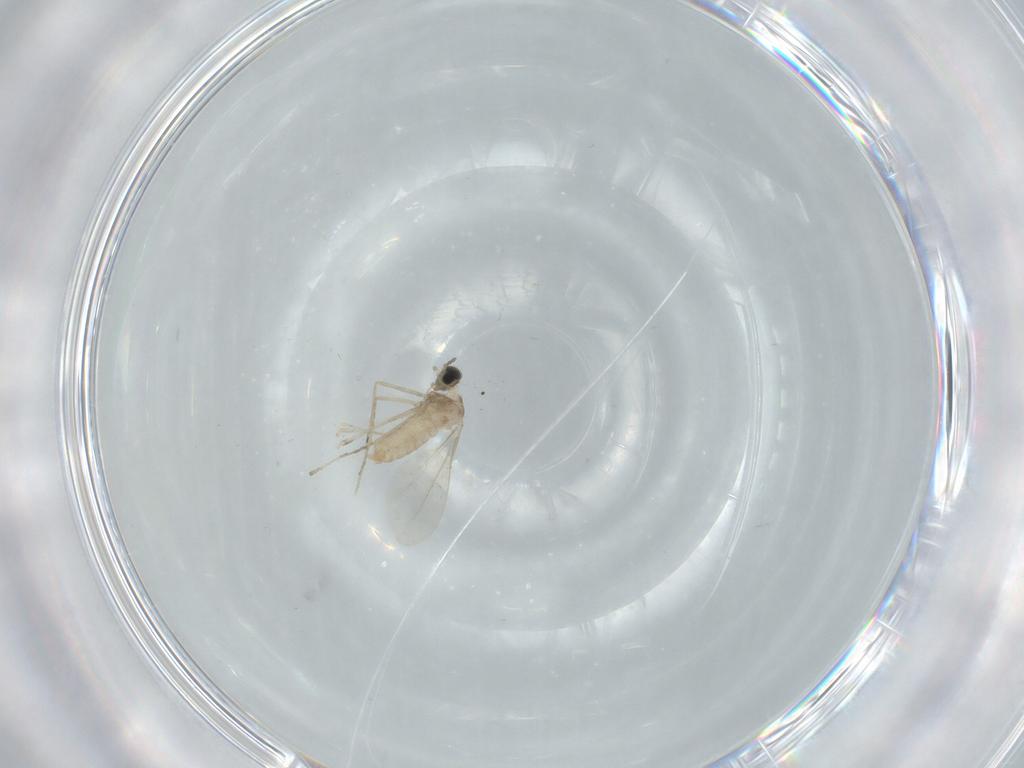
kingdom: Animalia
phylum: Arthropoda
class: Insecta
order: Diptera
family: Cecidomyiidae
